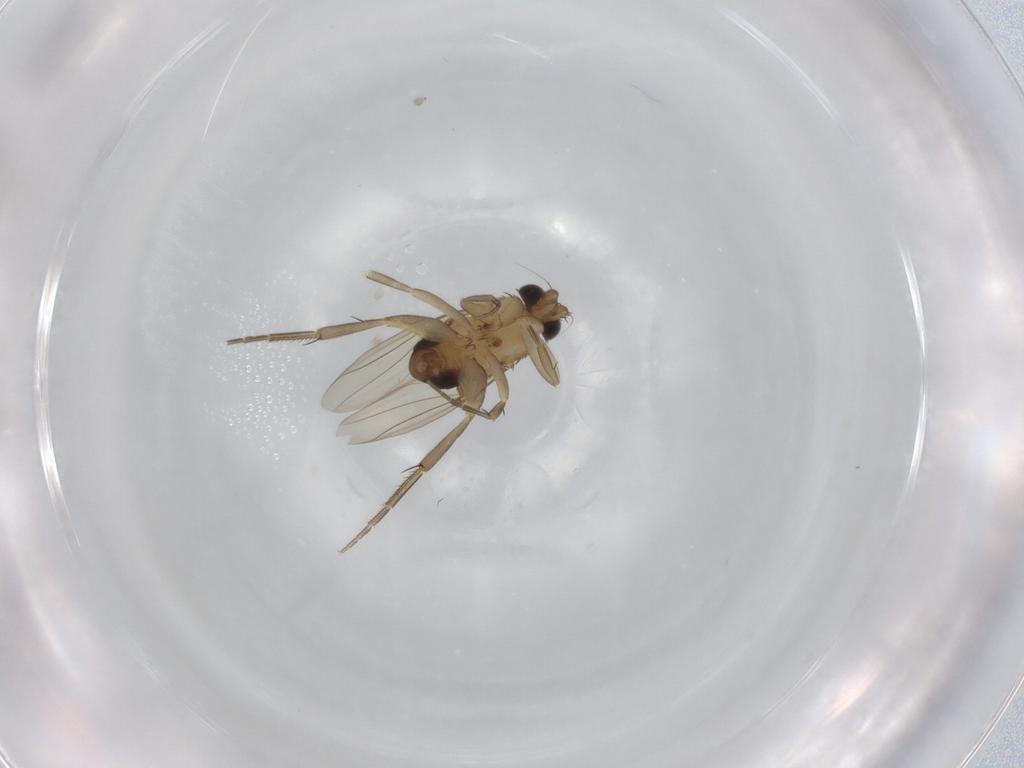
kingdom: Animalia
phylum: Arthropoda
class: Insecta
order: Diptera
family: Phoridae
